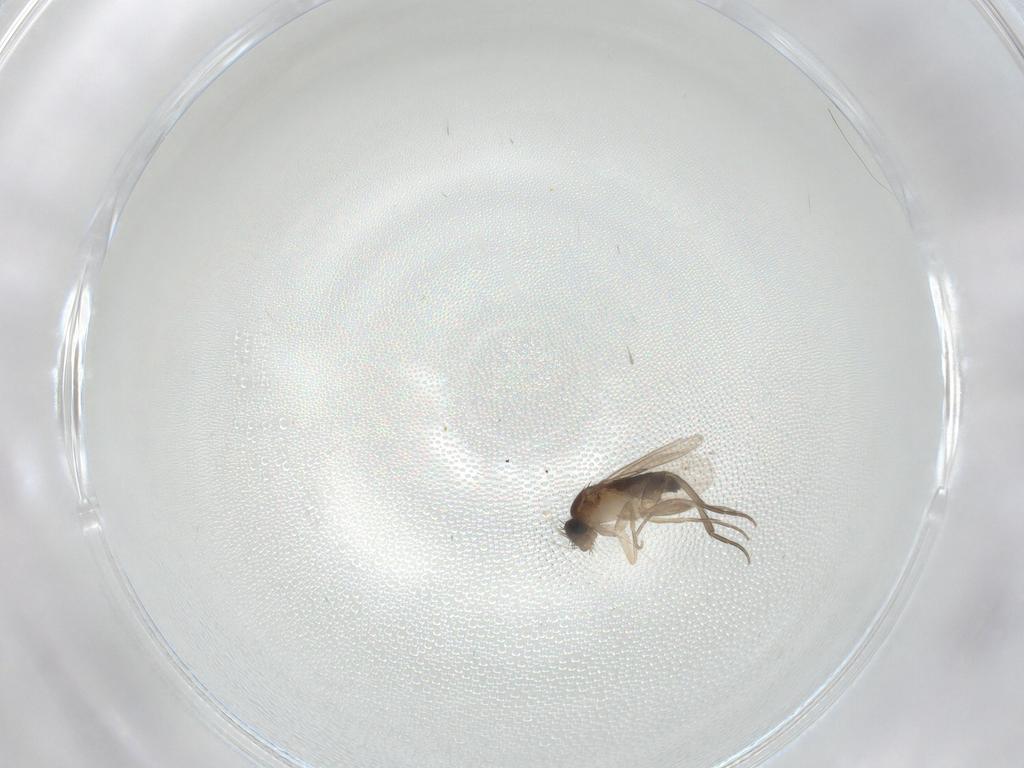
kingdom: Animalia
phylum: Arthropoda
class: Insecta
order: Diptera
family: Phoridae
